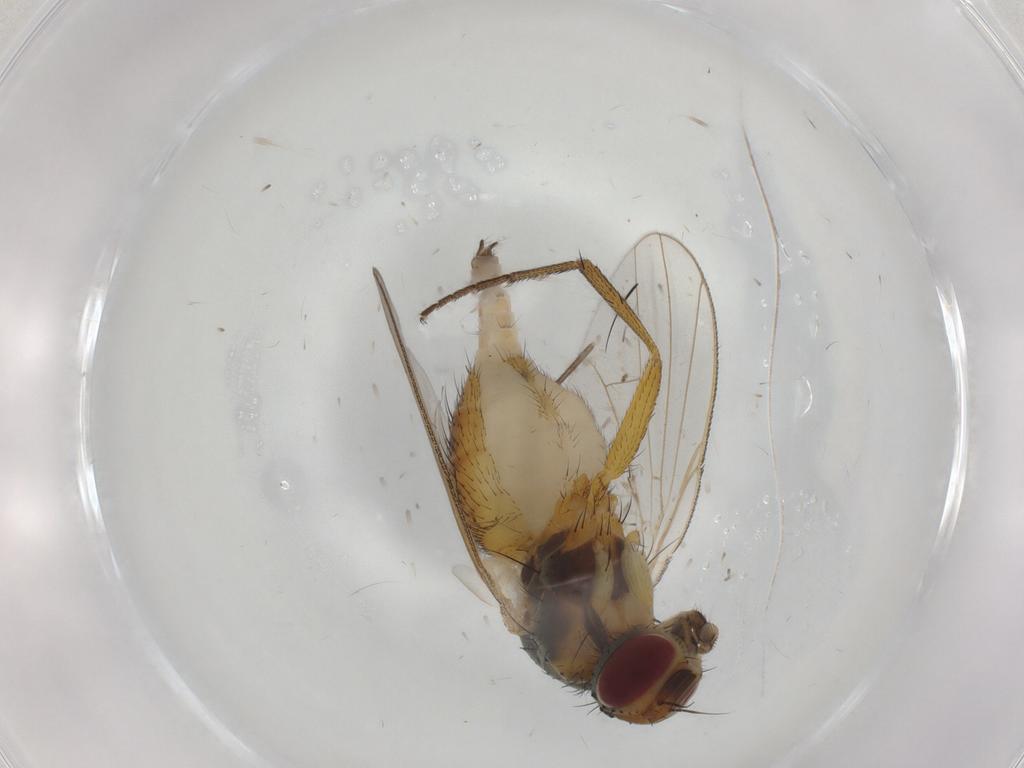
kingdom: Animalia
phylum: Arthropoda
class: Insecta
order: Diptera
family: Muscidae
